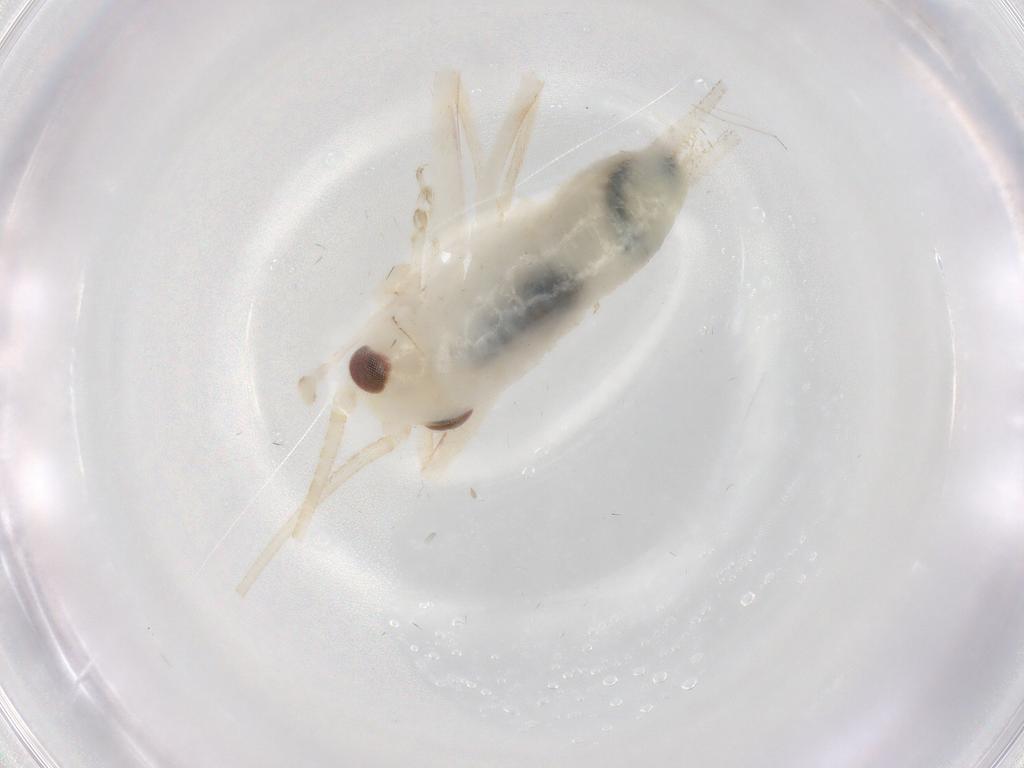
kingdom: Animalia
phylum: Arthropoda
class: Insecta
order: Orthoptera
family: Trigonidiidae
